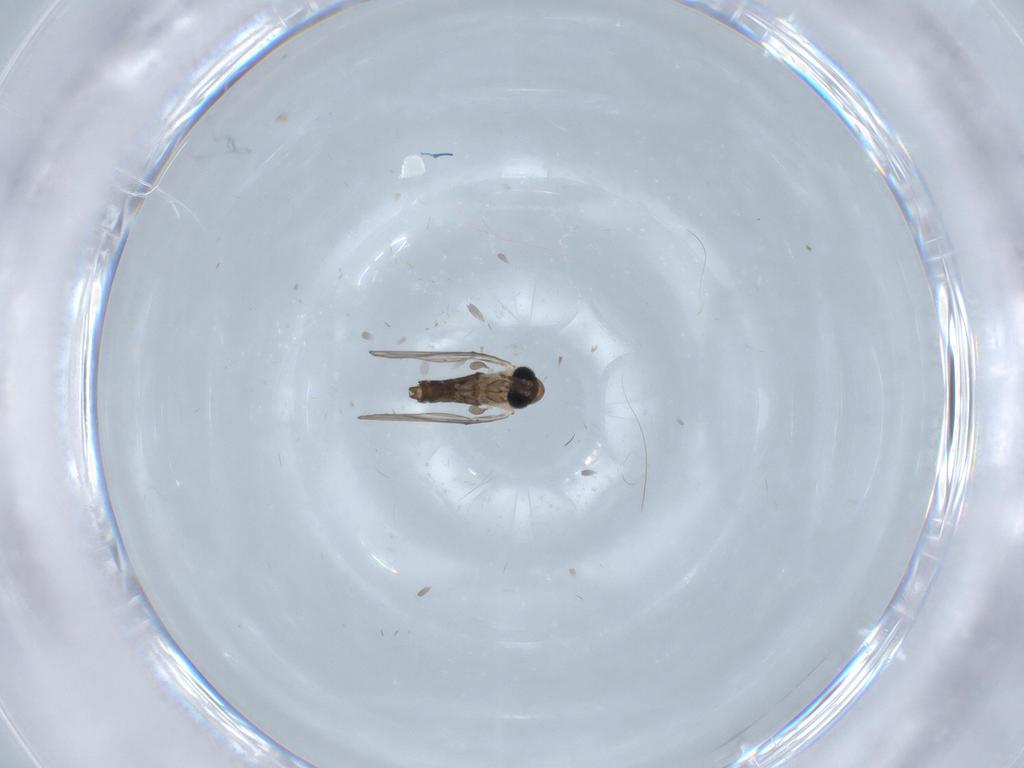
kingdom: Animalia
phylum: Arthropoda
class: Insecta
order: Diptera
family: Psychodidae
